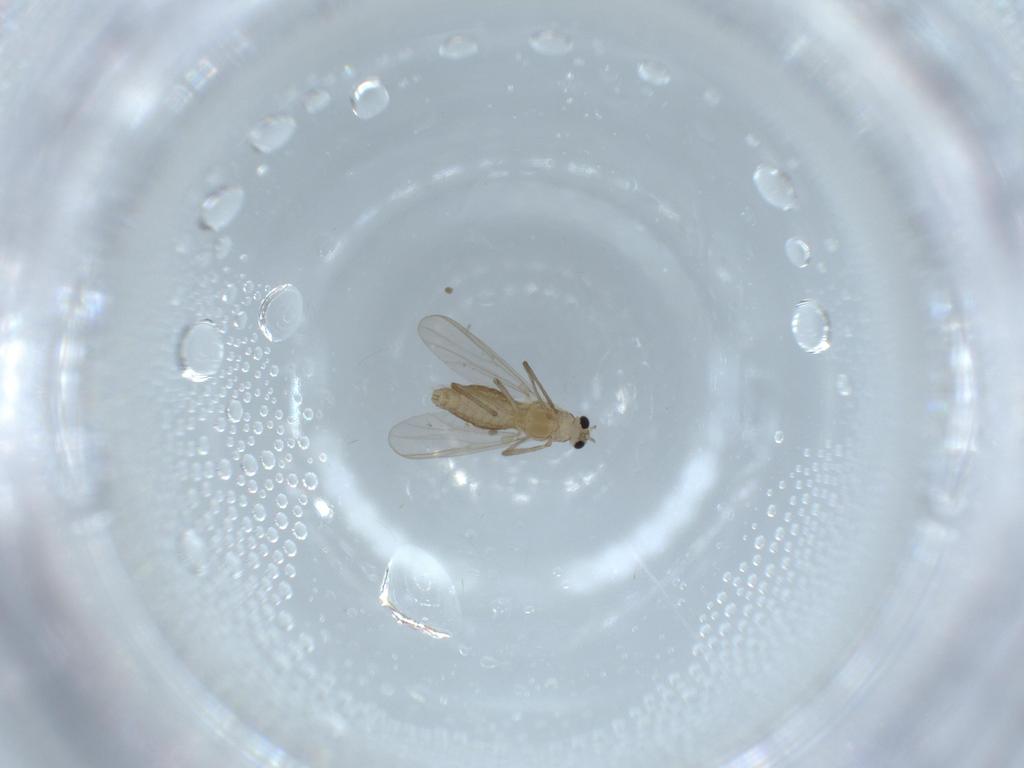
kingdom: Animalia
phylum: Arthropoda
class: Insecta
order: Diptera
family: Chironomidae
